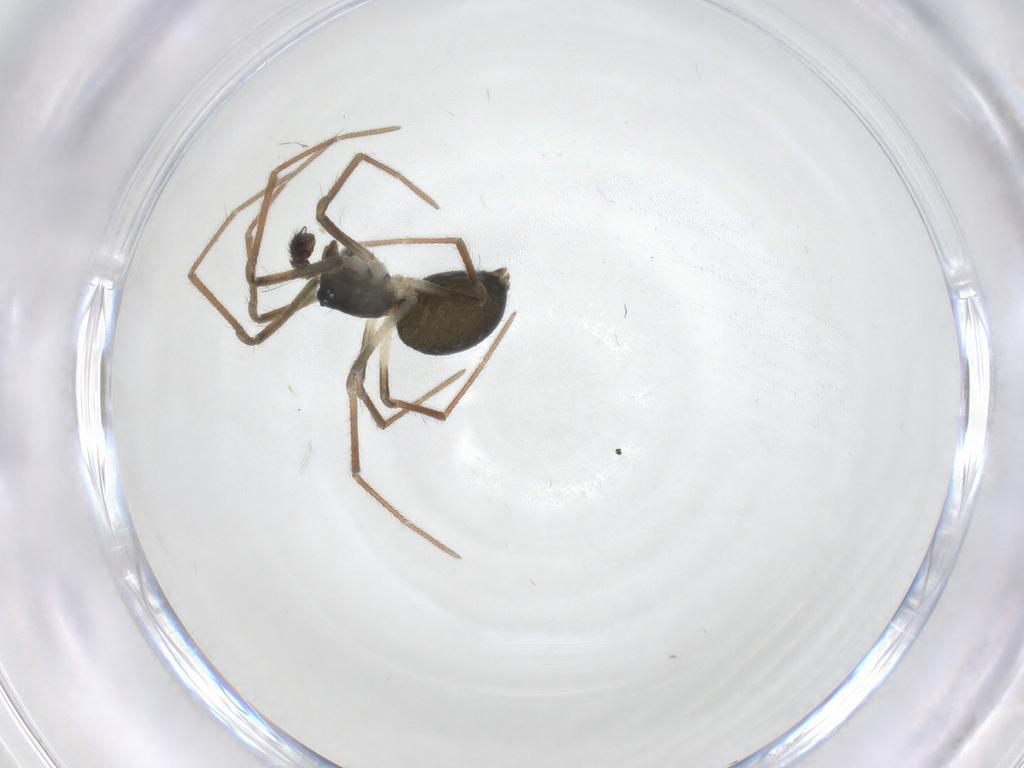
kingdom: Animalia
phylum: Arthropoda
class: Arachnida
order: Araneae
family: Linyphiidae
